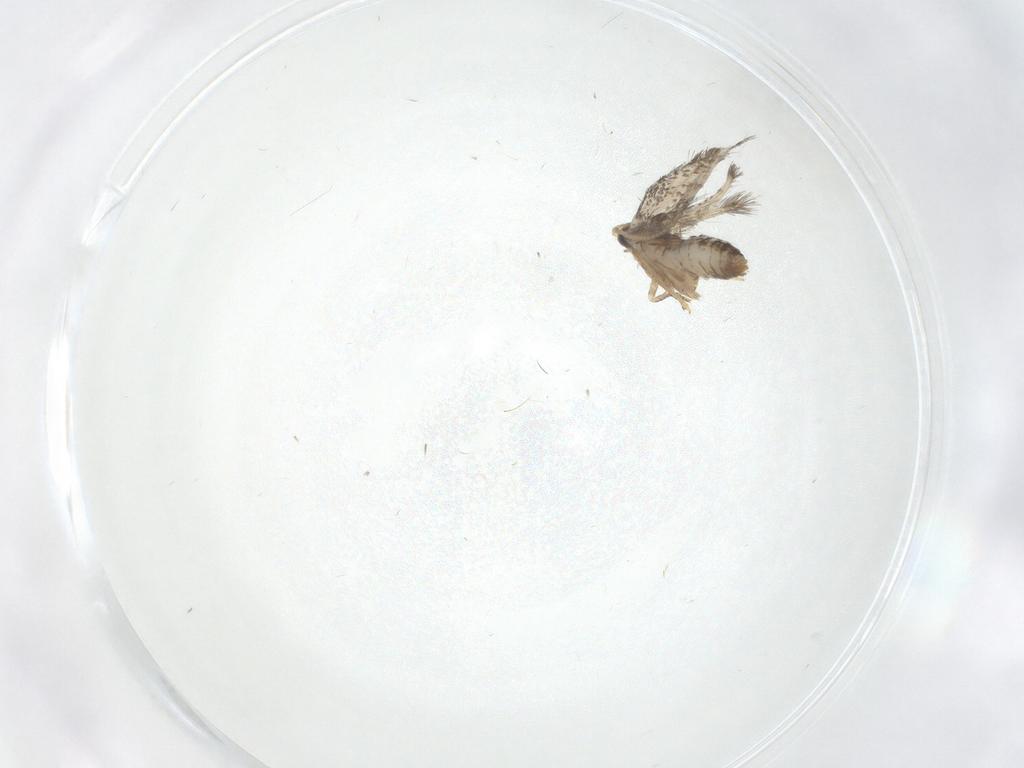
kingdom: Animalia
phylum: Arthropoda
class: Insecta
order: Lepidoptera
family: Nepticulidae
